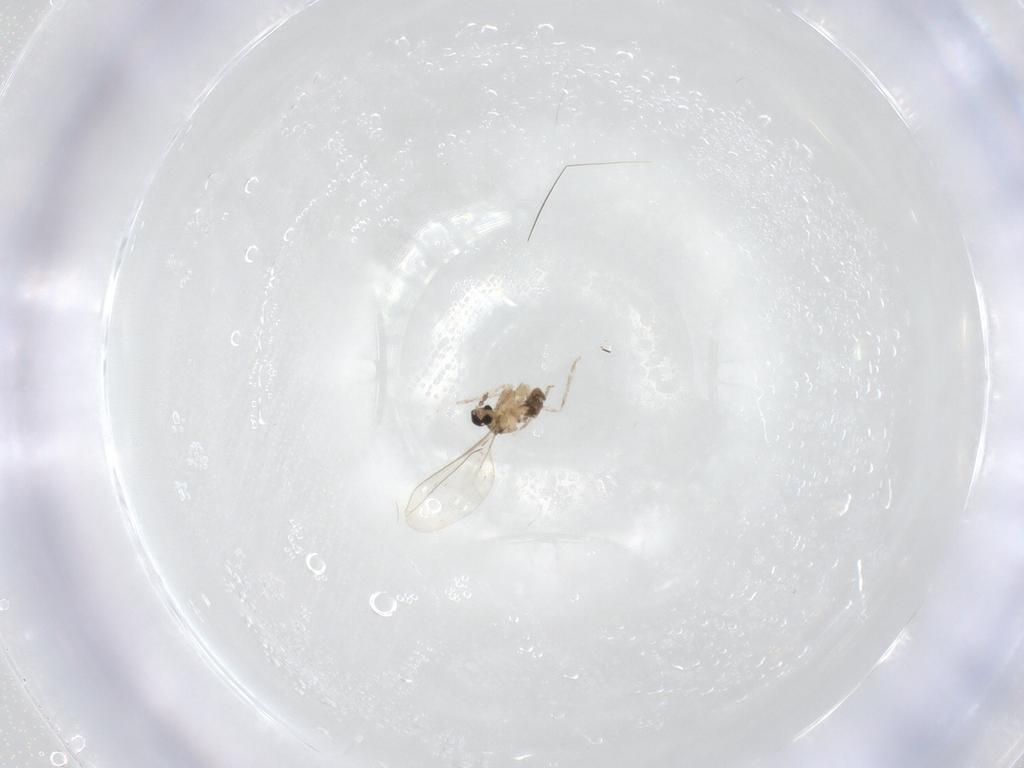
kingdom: Animalia
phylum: Arthropoda
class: Insecta
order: Diptera
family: Cecidomyiidae
